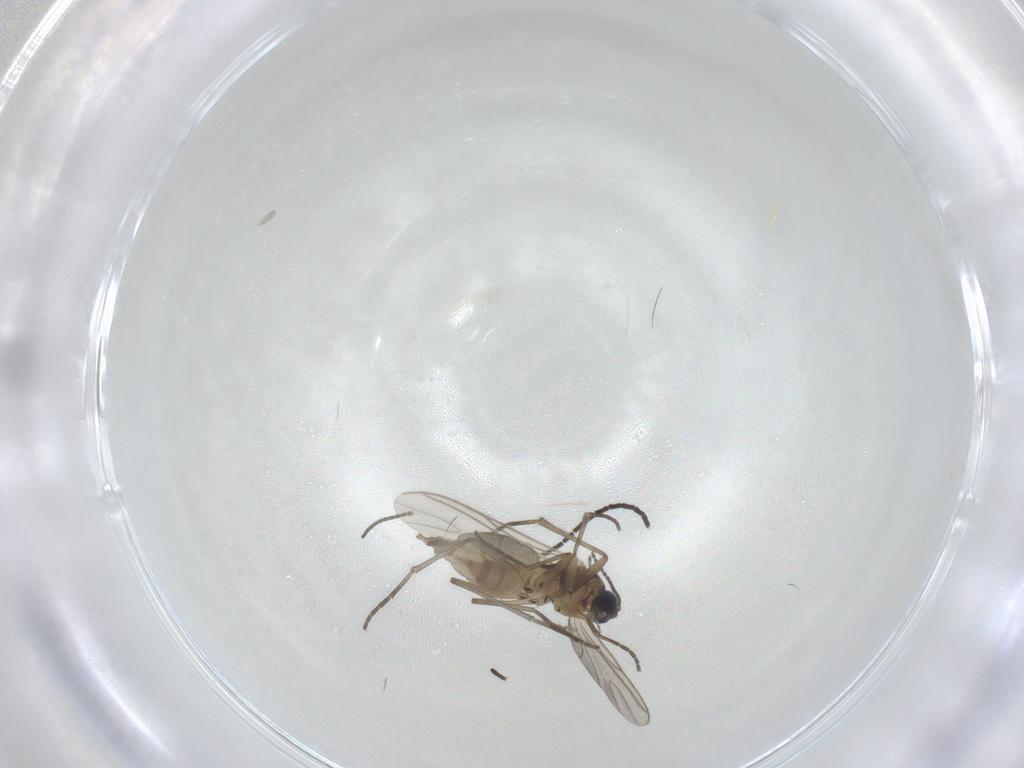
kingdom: Animalia
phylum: Arthropoda
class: Insecta
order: Diptera
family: Sciaridae
